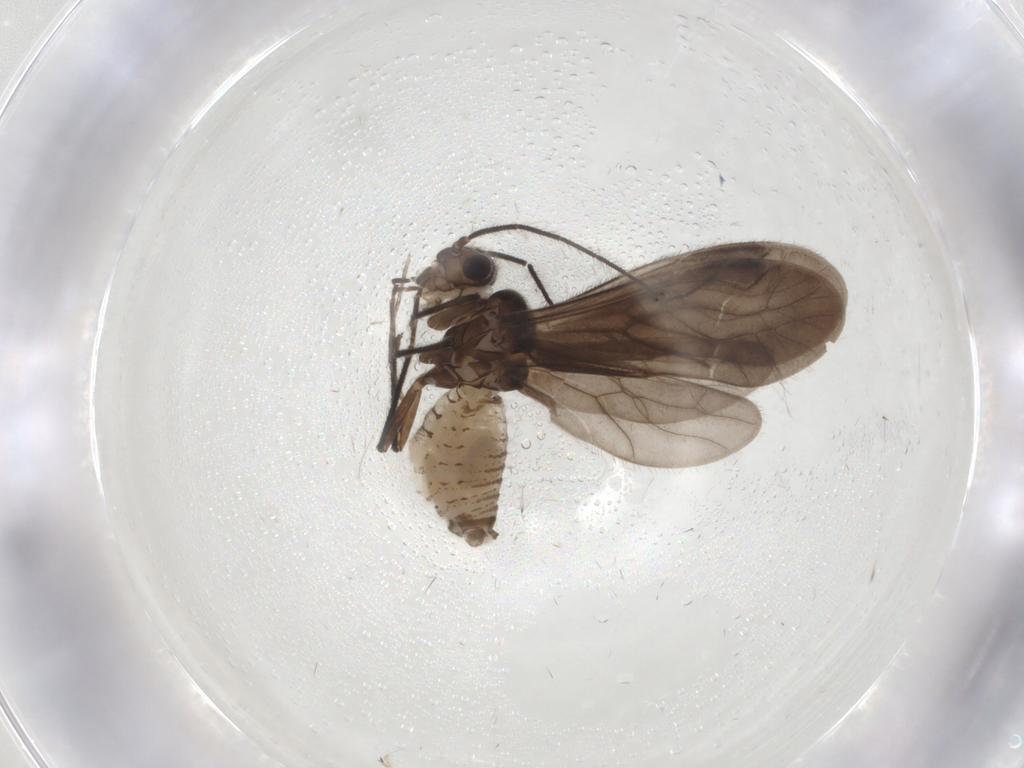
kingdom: Animalia
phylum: Arthropoda
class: Insecta
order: Psocodea
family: Caeciliusidae
